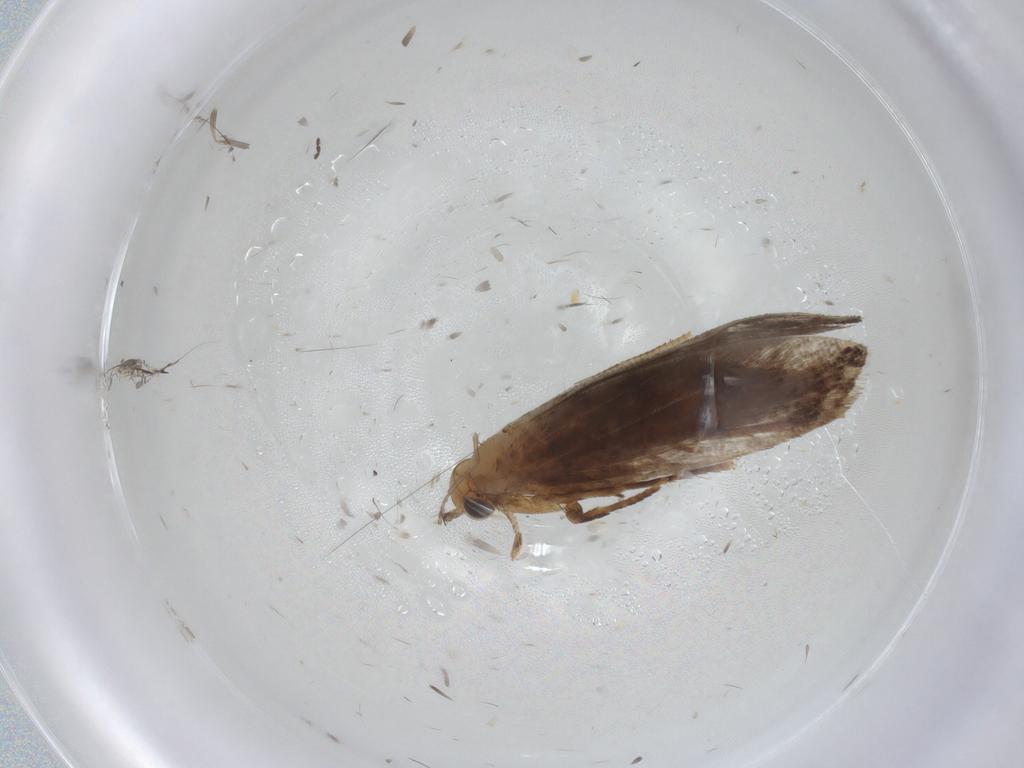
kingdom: Animalia
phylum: Arthropoda
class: Insecta
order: Lepidoptera
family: Tineidae
